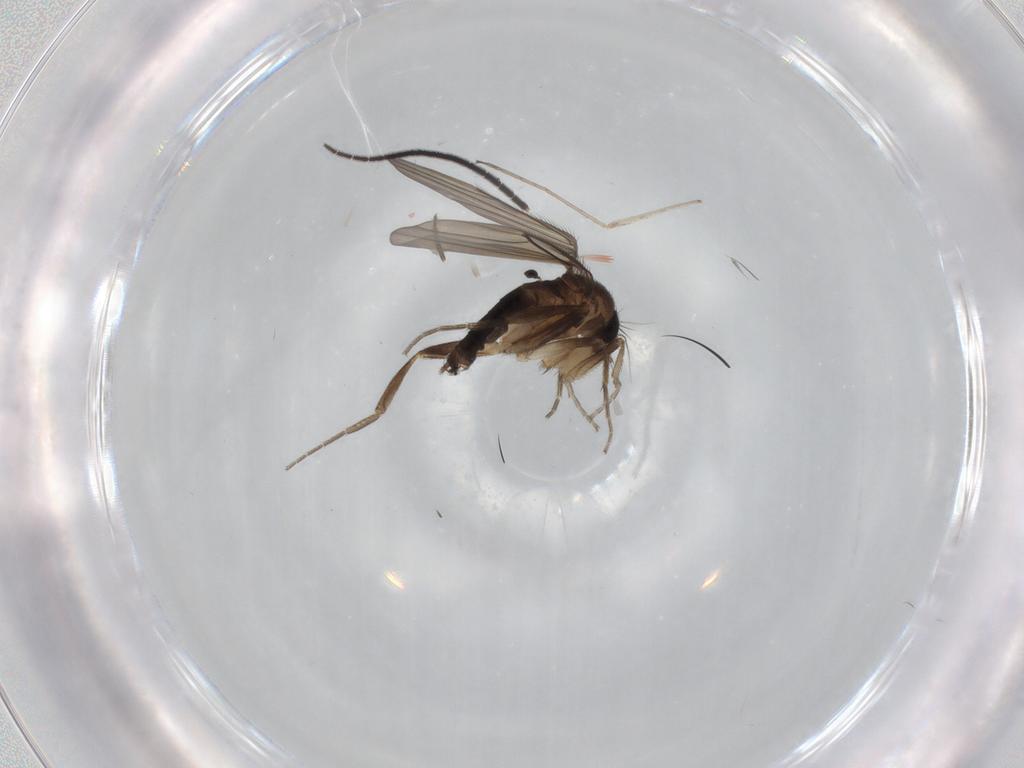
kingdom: Animalia
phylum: Arthropoda
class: Insecta
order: Diptera
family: Sciaridae
